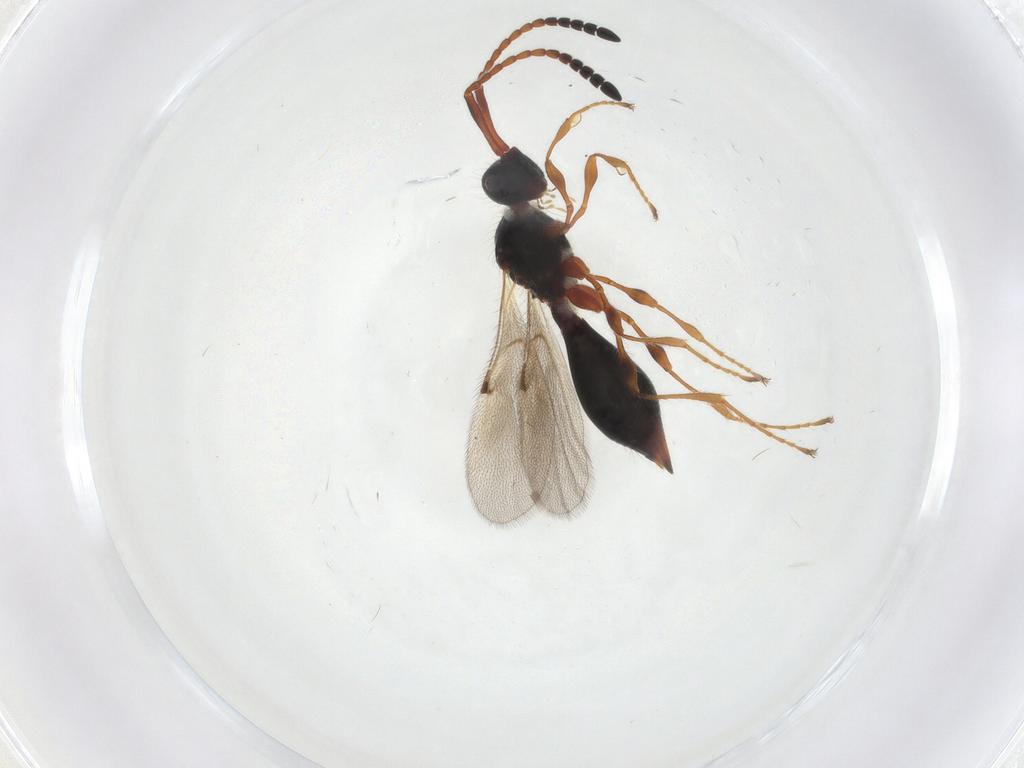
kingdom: Animalia
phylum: Arthropoda
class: Insecta
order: Hymenoptera
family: Diapriidae
